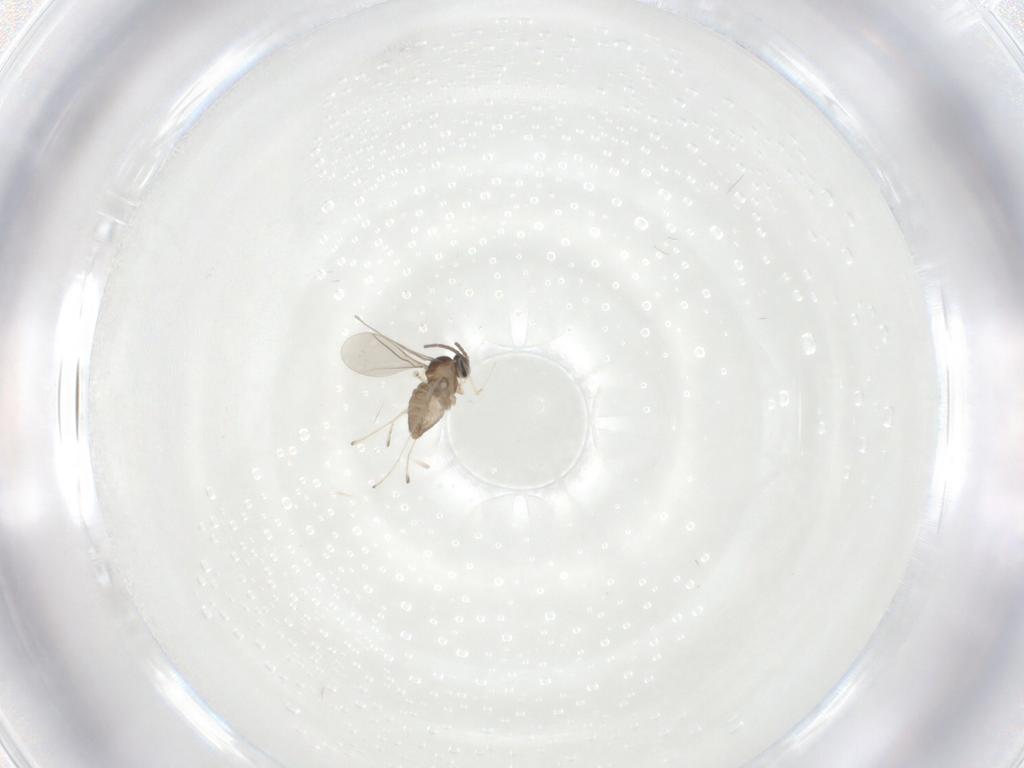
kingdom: Animalia
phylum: Arthropoda
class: Insecta
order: Diptera
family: Cecidomyiidae
